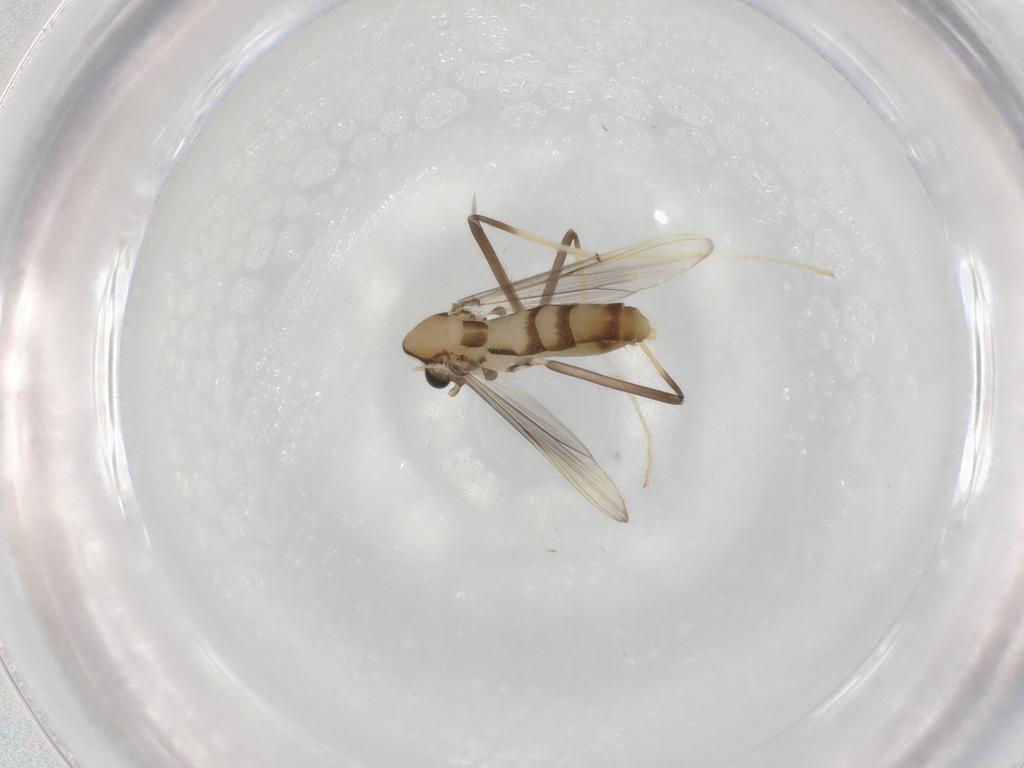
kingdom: Animalia
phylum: Arthropoda
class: Insecta
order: Diptera
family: Chironomidae
